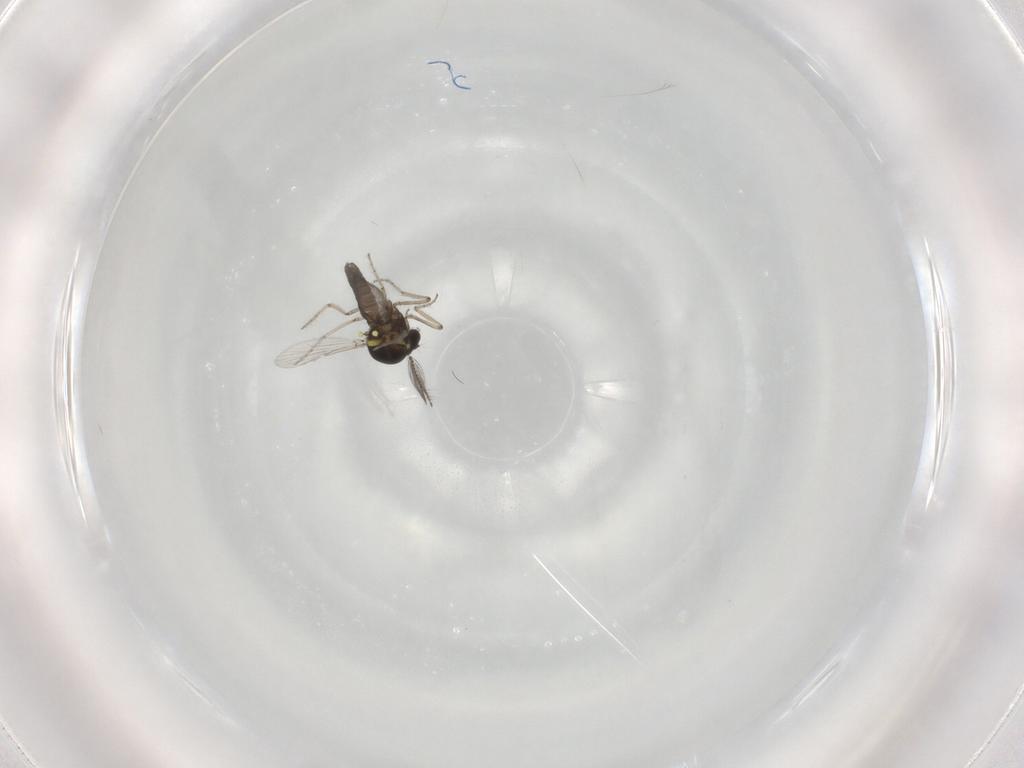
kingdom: Animalia
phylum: Arthropoda
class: Insecta
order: Diptera
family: Ceratopogonidae
